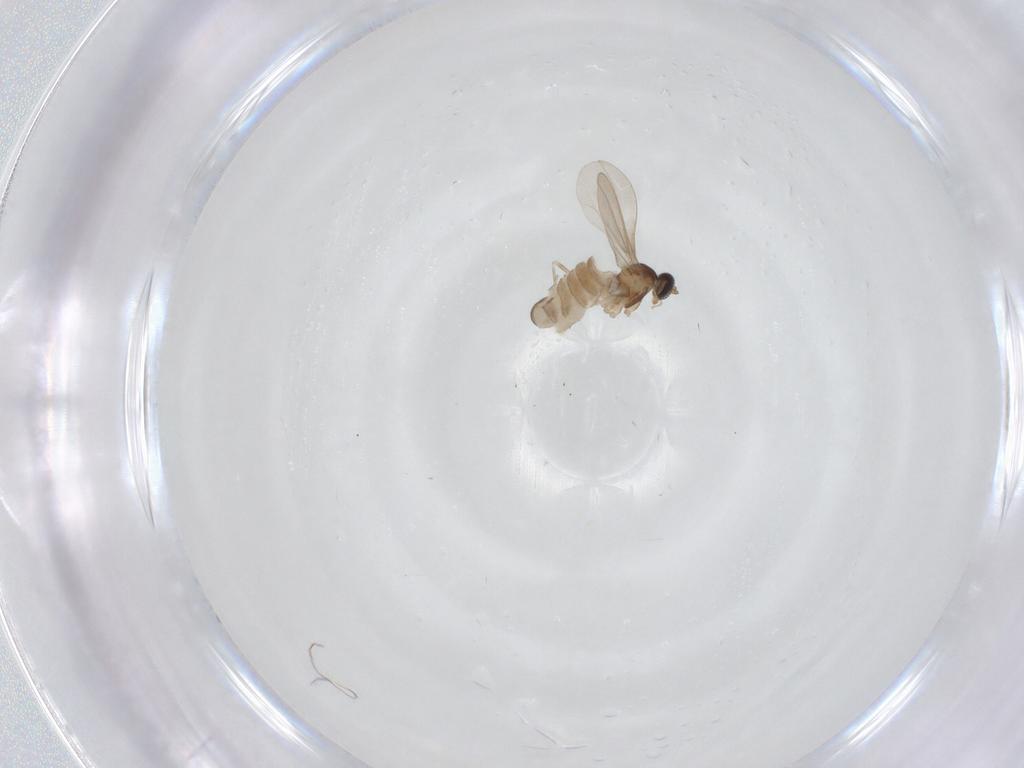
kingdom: Animalia
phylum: Arthropoda
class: Insecta
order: Diptera
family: Cecidomyiidae
